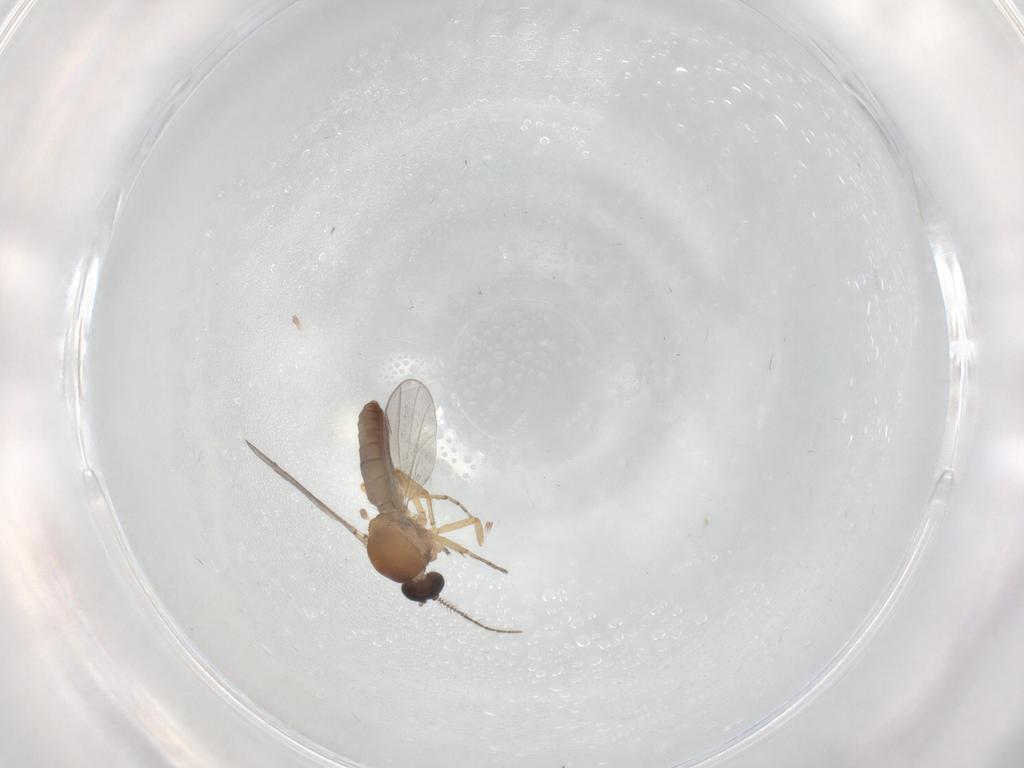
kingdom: Animalia
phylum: Arthropoda
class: Insecta
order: Diptera
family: Ceratopogonidae
